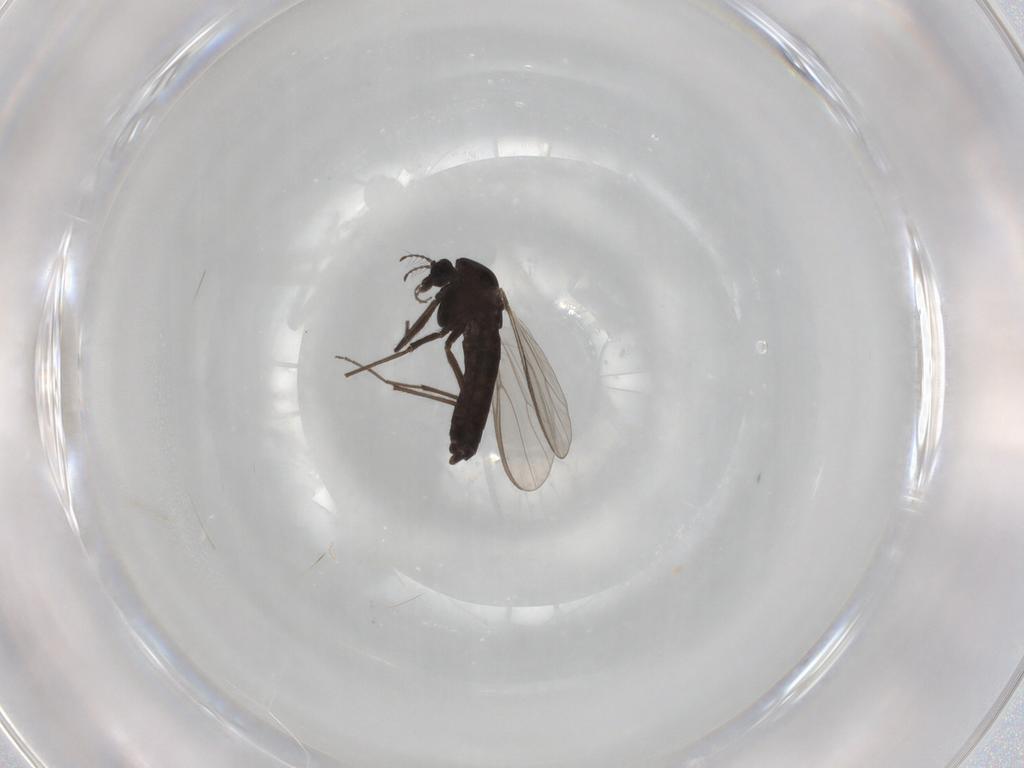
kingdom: Animalia
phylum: Arthropoda
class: Insecta
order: Diptera
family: Chironomidae
